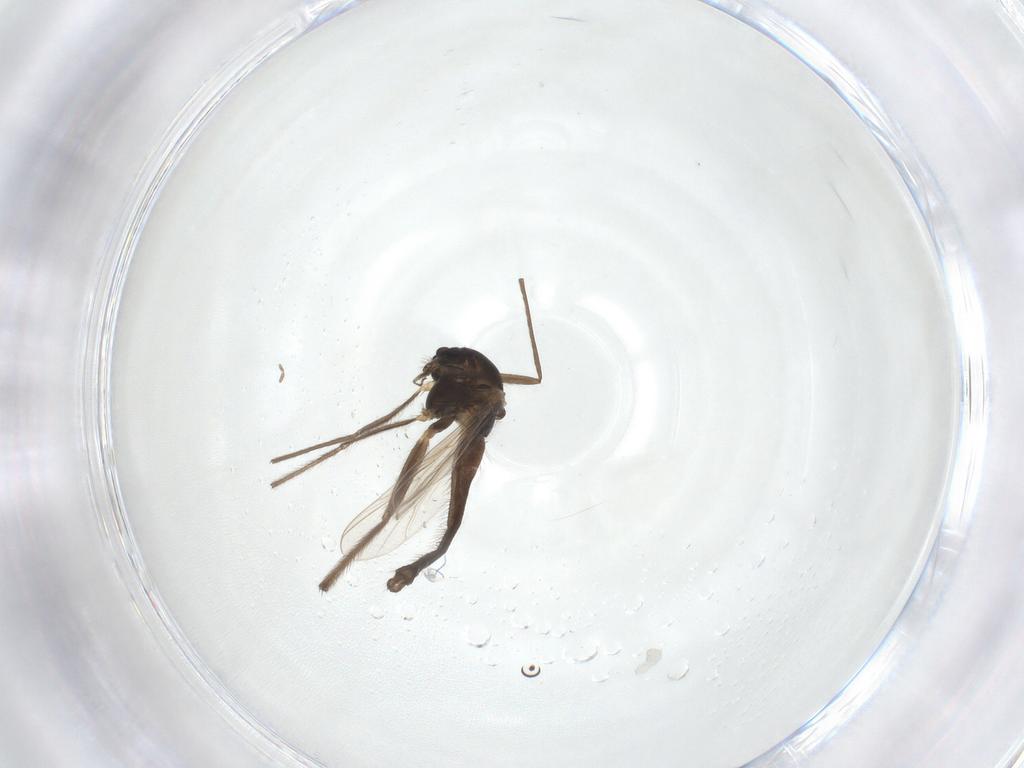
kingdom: Animalia
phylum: Arthropoda
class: Insecta
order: Diptera
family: Chironomidae
